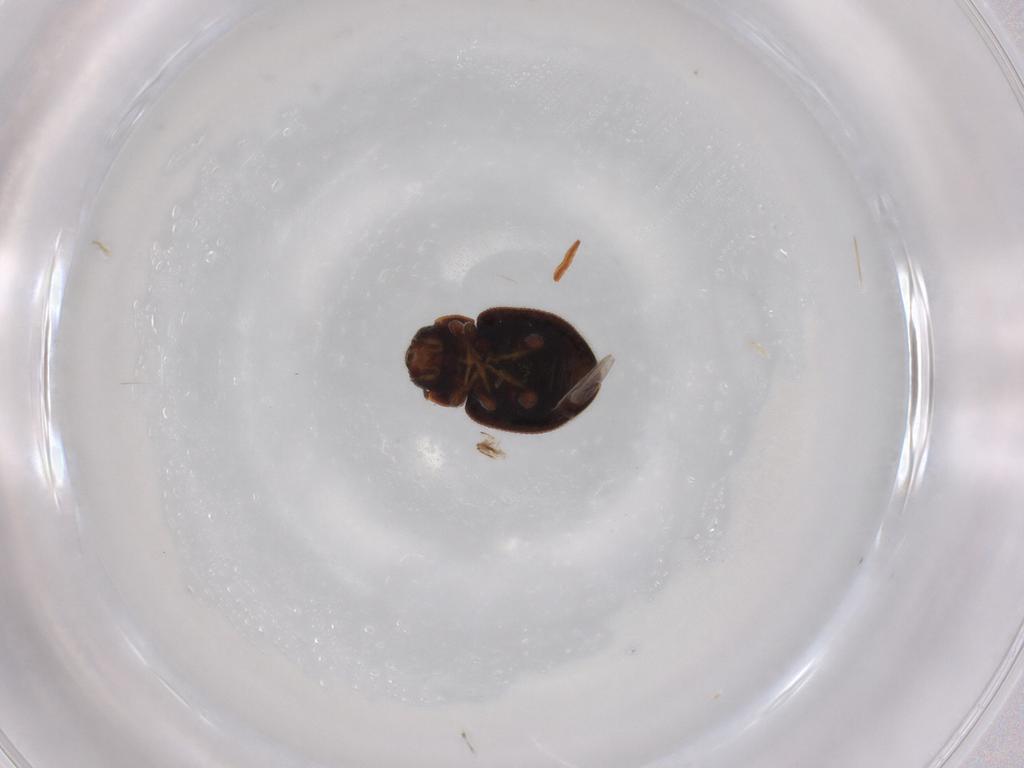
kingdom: Animalia
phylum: Arthropoda
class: Insecta
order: Coleoptera
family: Coccinellidae
